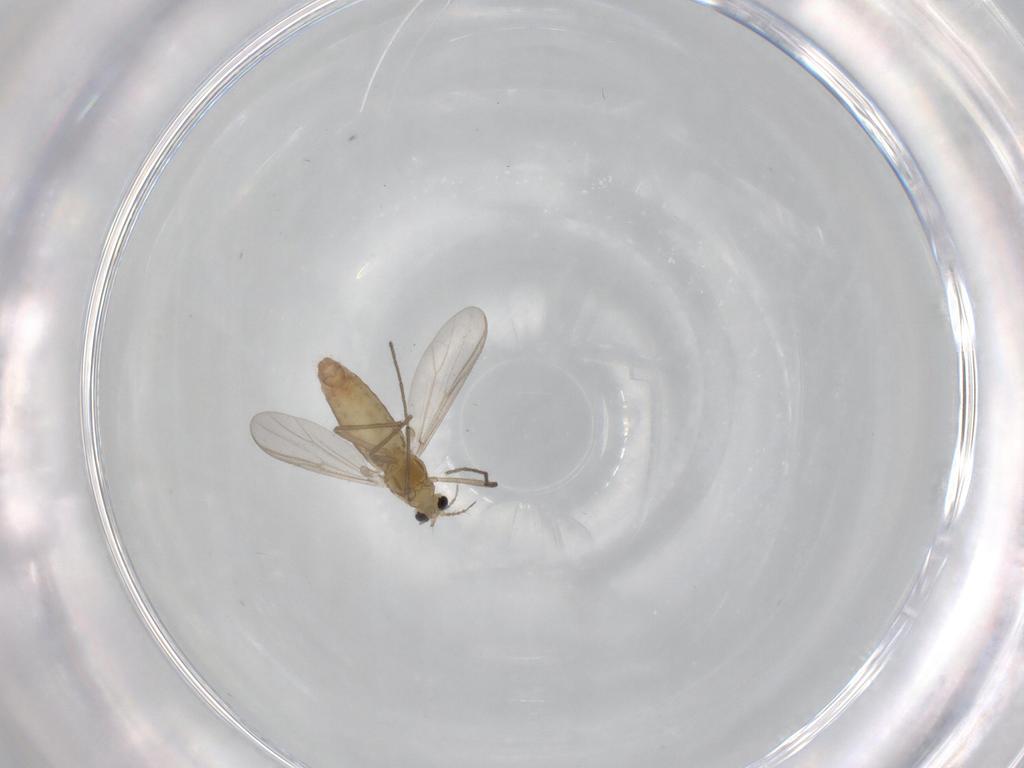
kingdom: Animalia
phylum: Arthropoda
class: Insecta
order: Diptera
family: Chironomidae
